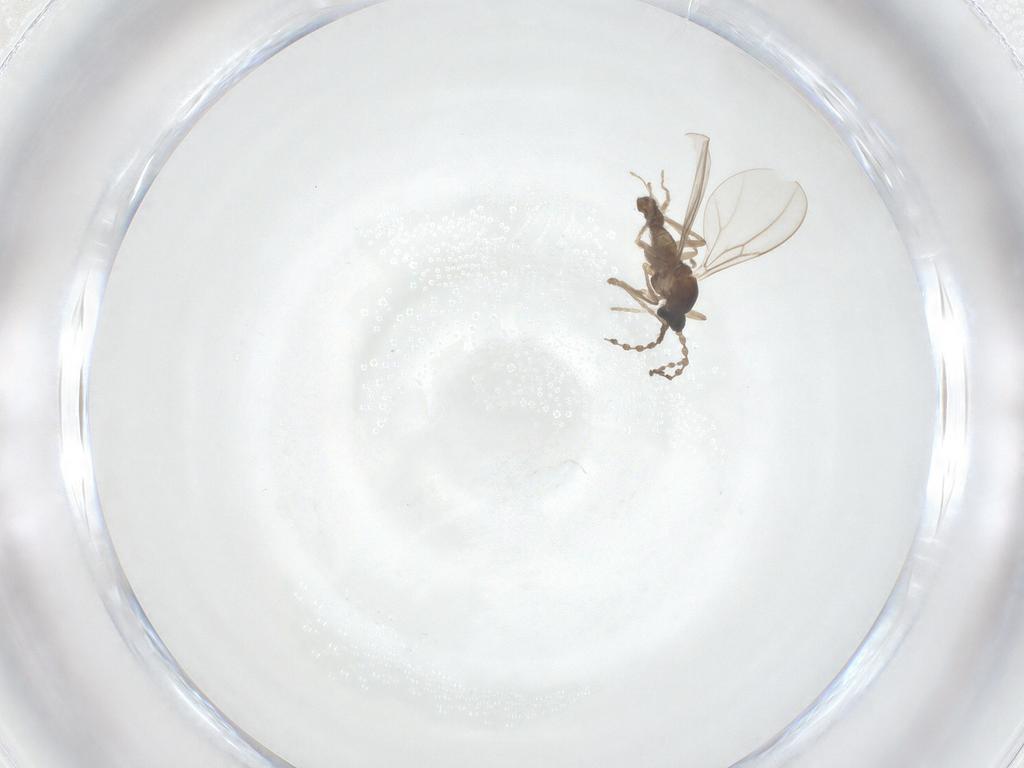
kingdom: Animalia
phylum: Arthropoda
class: Insecta
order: Diptera
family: Cecidomyiidae
